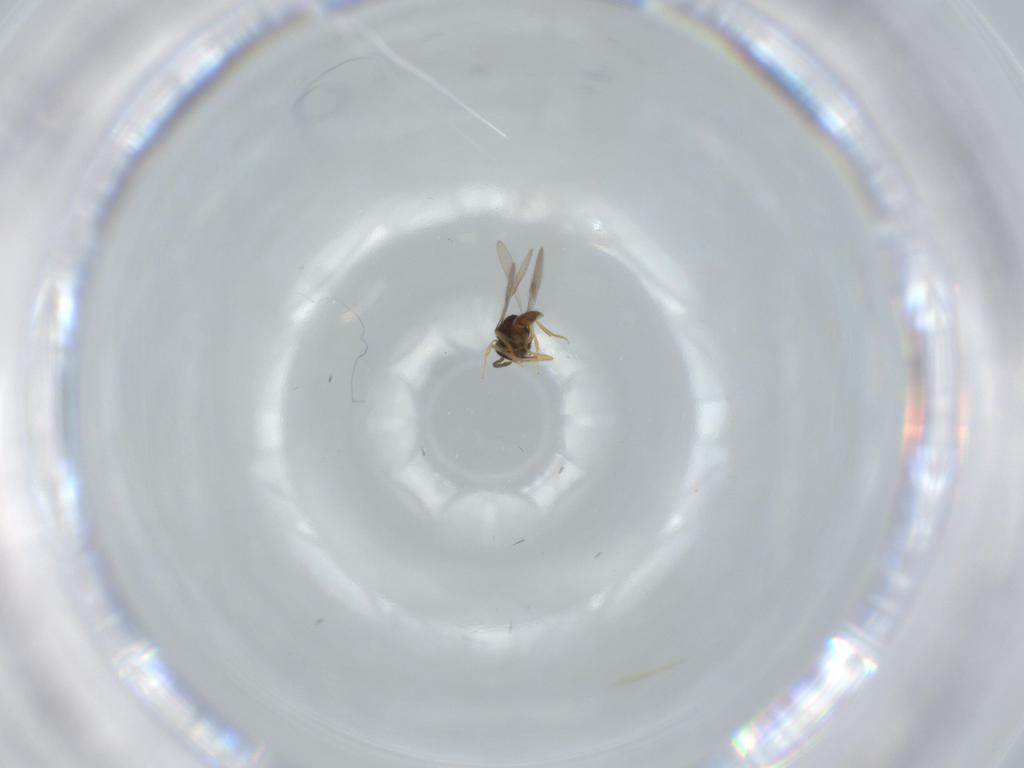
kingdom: Animalia
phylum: Arthropoda
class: Insecta
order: Hymenoptera
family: Scelionidae
